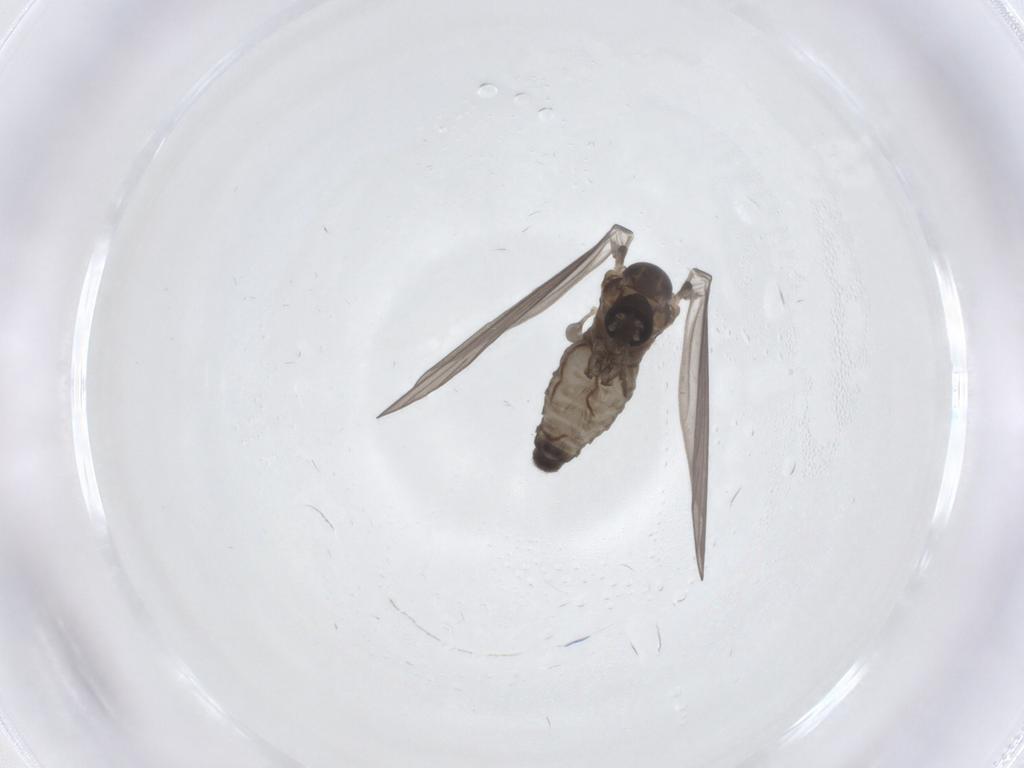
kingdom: Animalia
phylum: Arthropoda
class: Insecta
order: Diptera
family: Psychodidae
